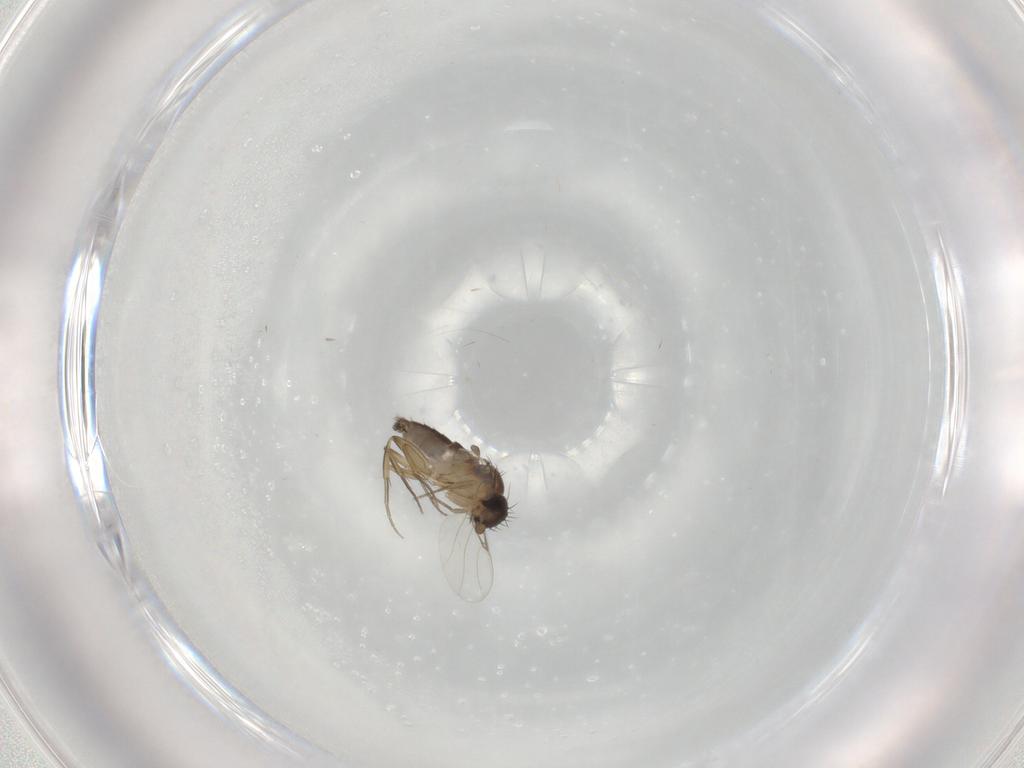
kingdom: Animalia
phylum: Arthropoda
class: Insecta
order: Diptera
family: Phoridae
